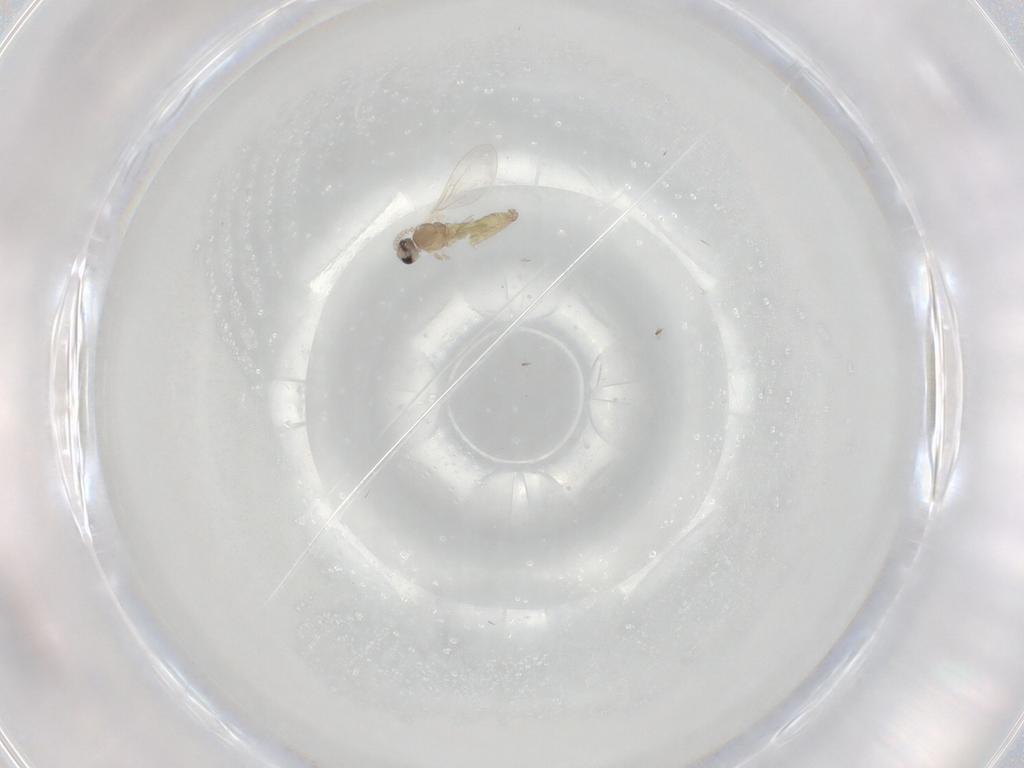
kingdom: Animalia
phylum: Arthropoda
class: Insecta
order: Diptera
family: Cecidomyiidae
